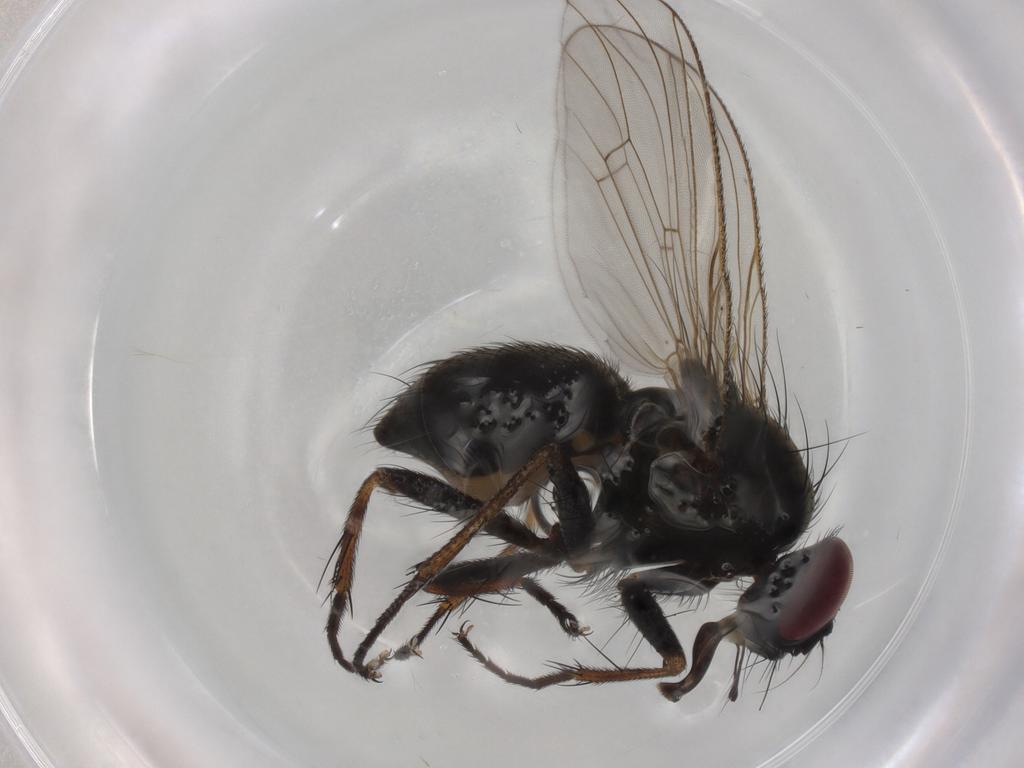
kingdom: Animalia
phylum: Arthropoda
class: Insecta
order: Diptera
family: Muscidae
